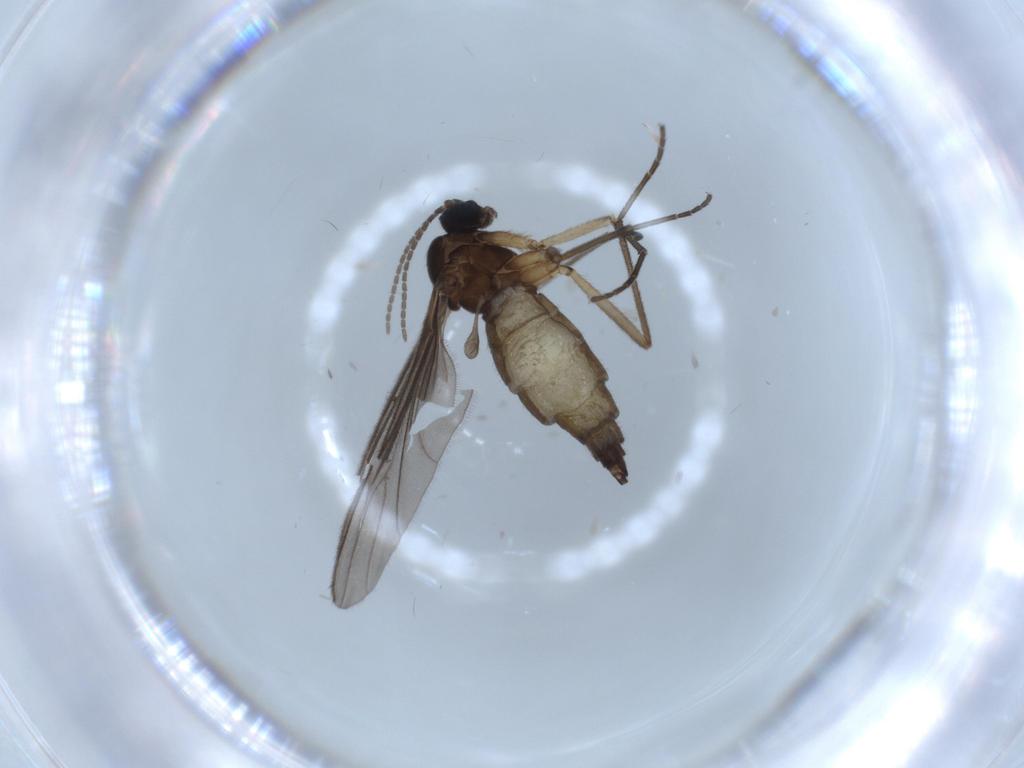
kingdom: Animalia
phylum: Arthropoda
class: Insecta
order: Diptera
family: Sciaridae
